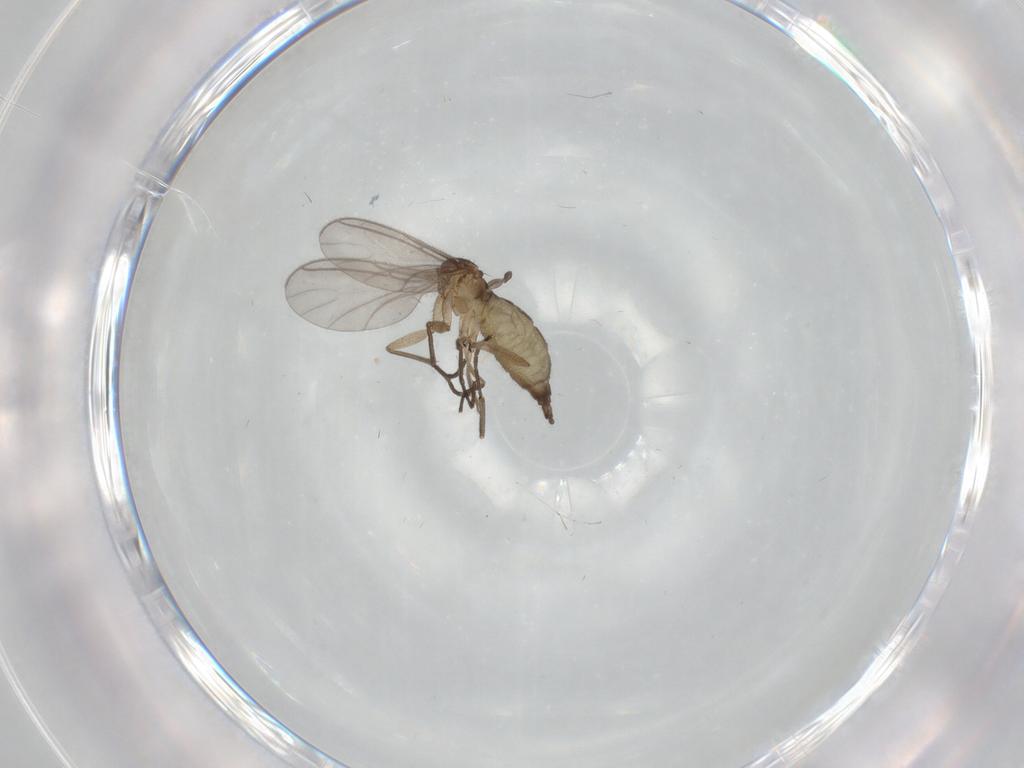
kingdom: Animalia
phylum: Arthropoda
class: Insecta
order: Diptera
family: Sciaridae
